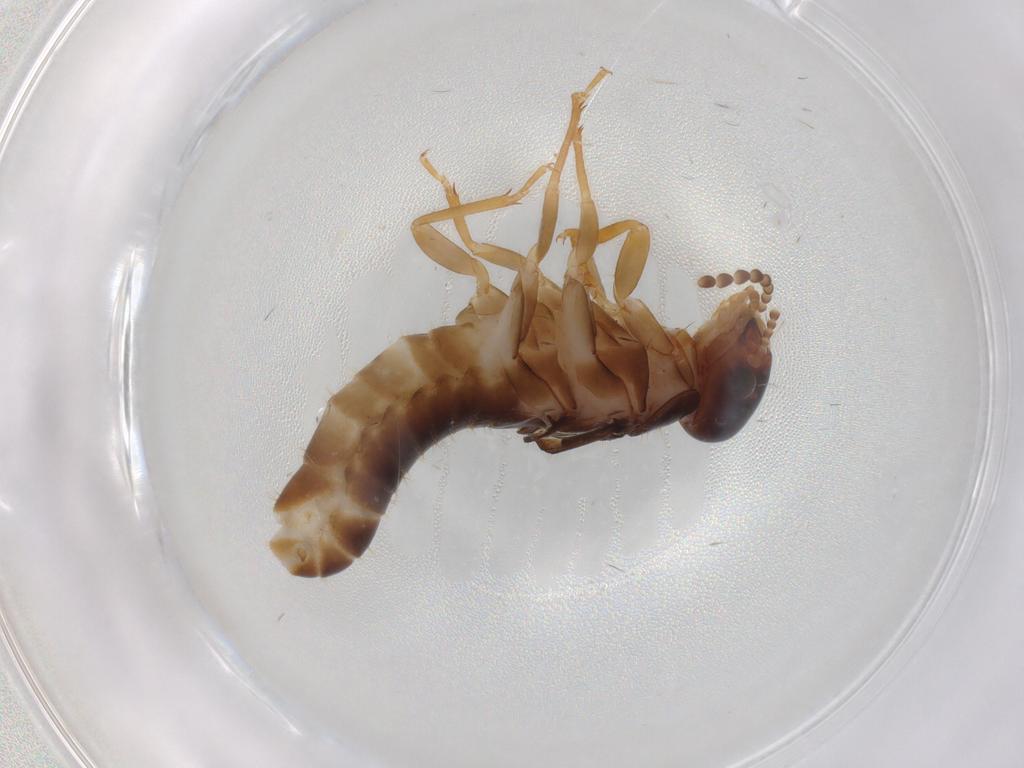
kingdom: Animalia
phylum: Arthropoda
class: Insecta
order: Blattodea
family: Kalotermitidae
